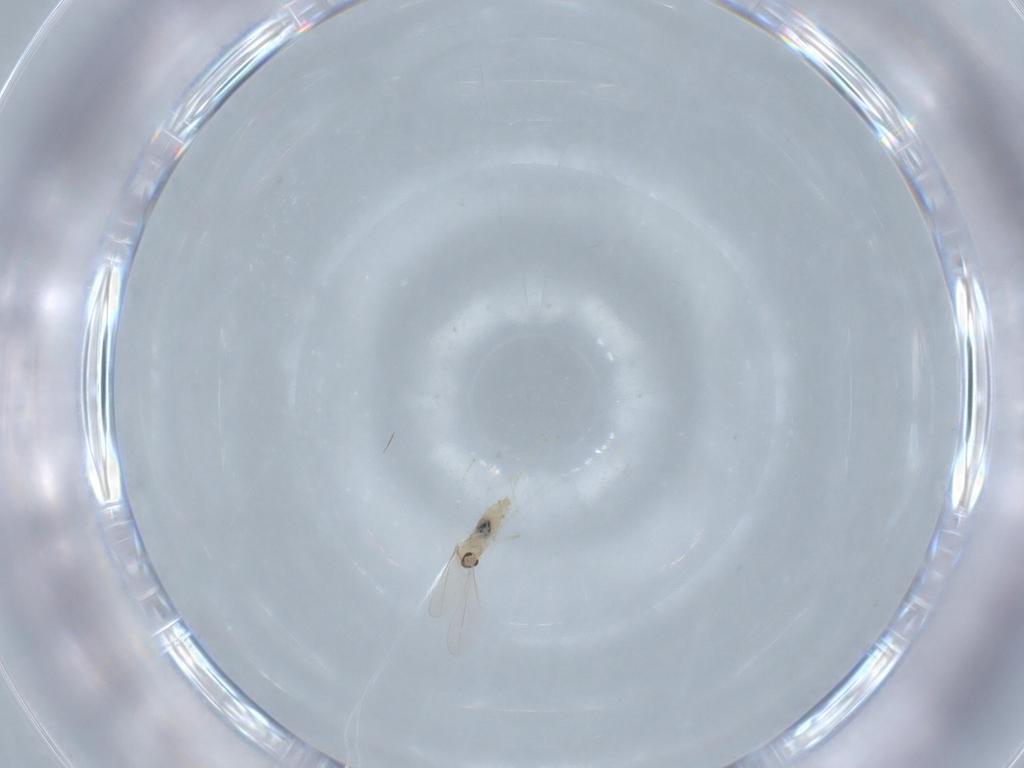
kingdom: Animalia
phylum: Arthropoda
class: Insecta
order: Diptera
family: Cecidomyiidae
